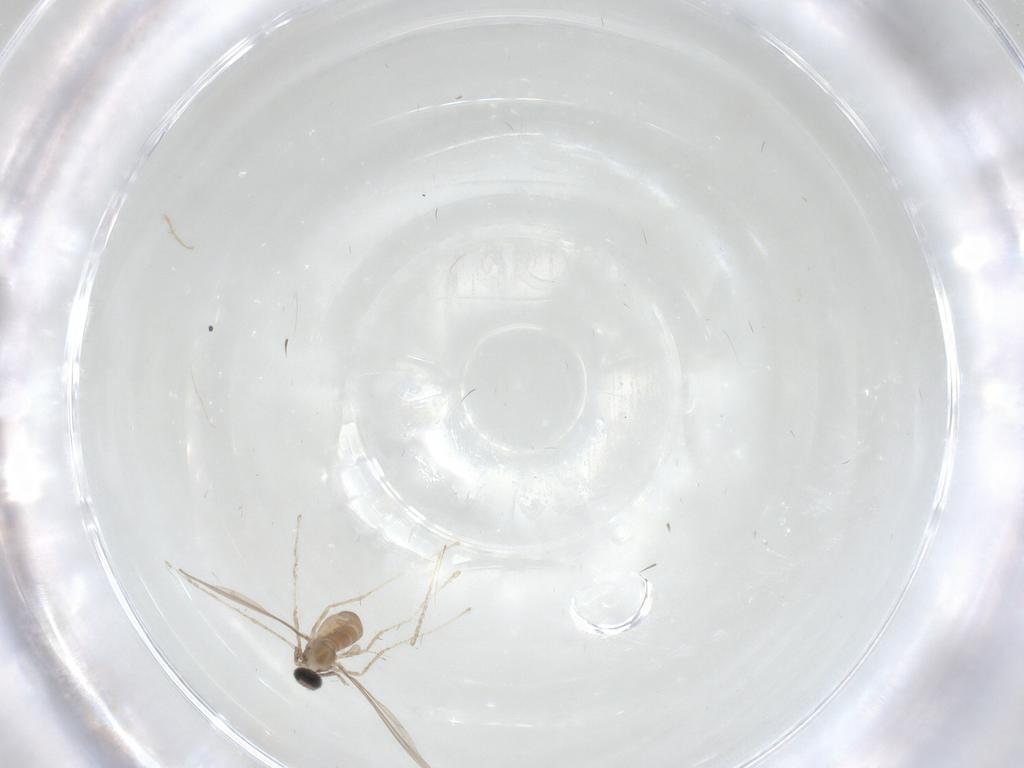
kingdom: Animalia
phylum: Arthropoda
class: Insecta
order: Diptera
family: Cecidomyiidae
